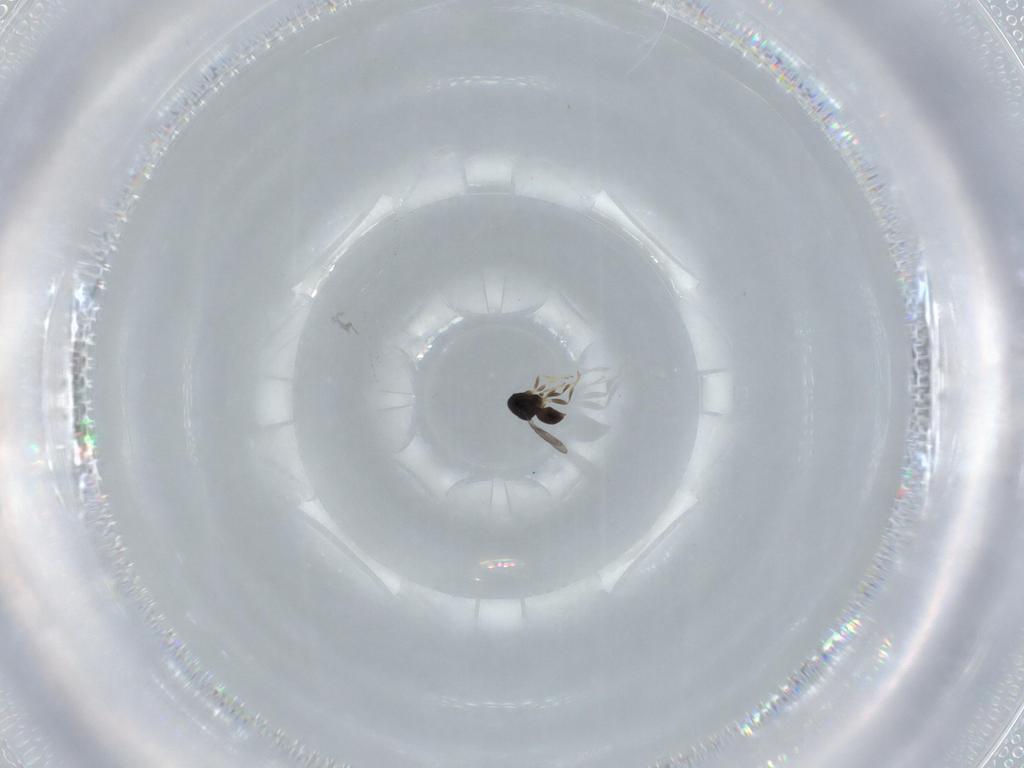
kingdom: Animalia
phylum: Arthropoda
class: Insecta
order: Hymenoptera
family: Ceraphronidae
